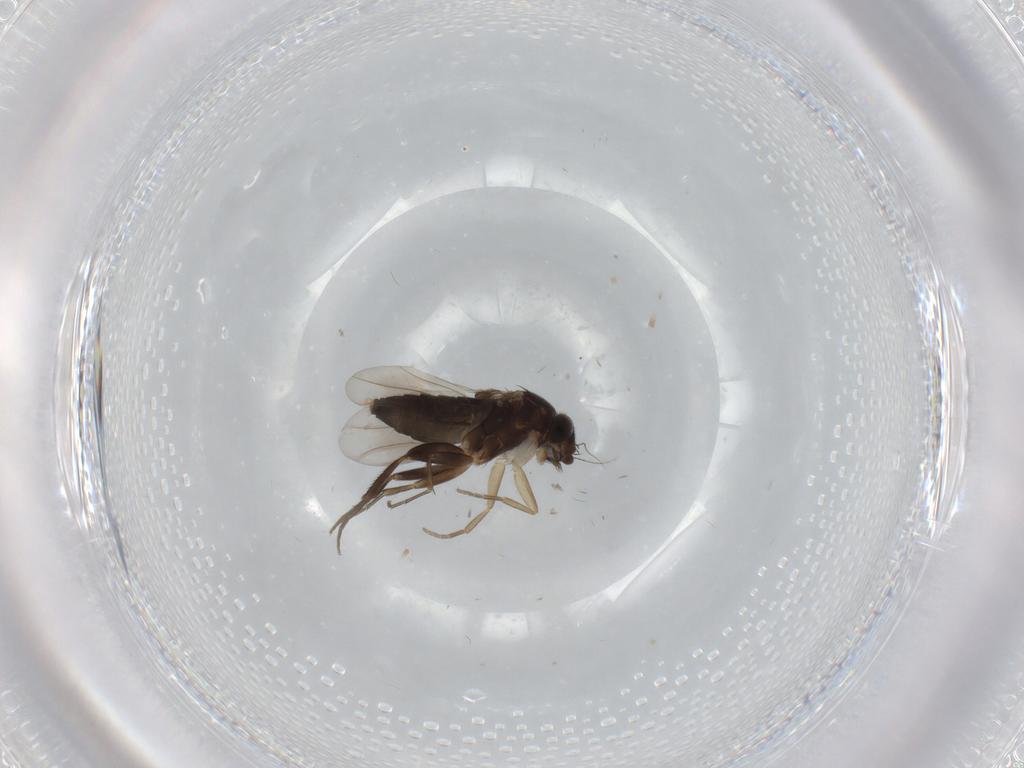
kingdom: Animalia
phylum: Arthropoda
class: Insecta
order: Diptera
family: Phoridae
